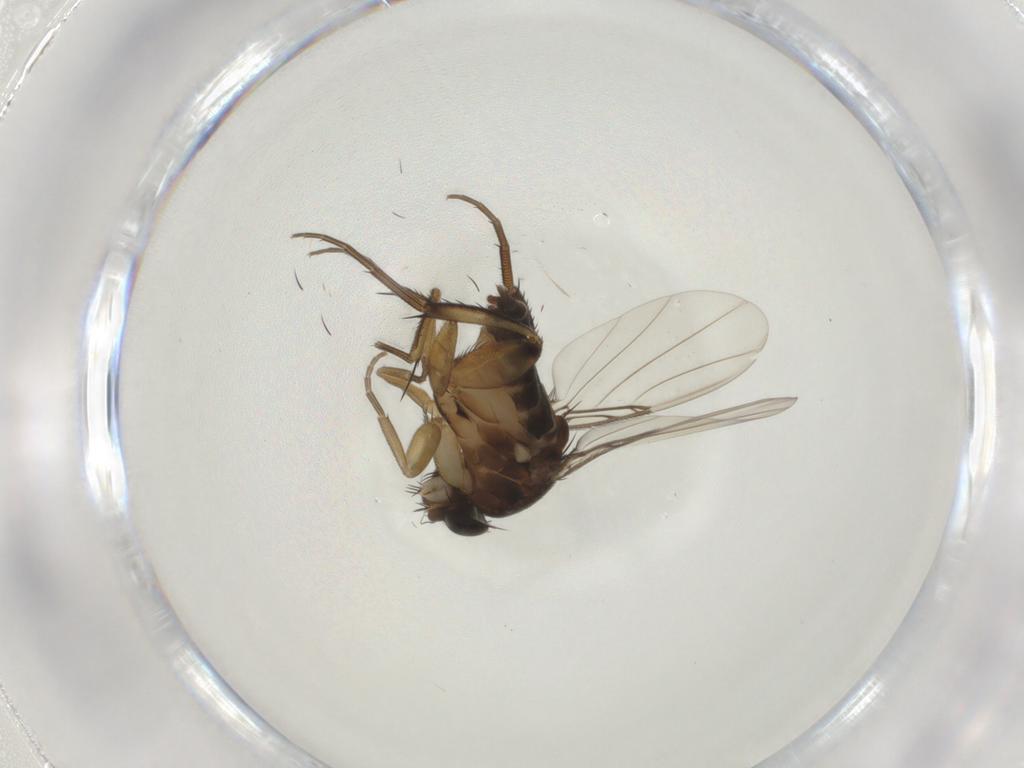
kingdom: Animalia
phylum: Arthropoda
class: Insecta
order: Diptera
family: Phoridae
